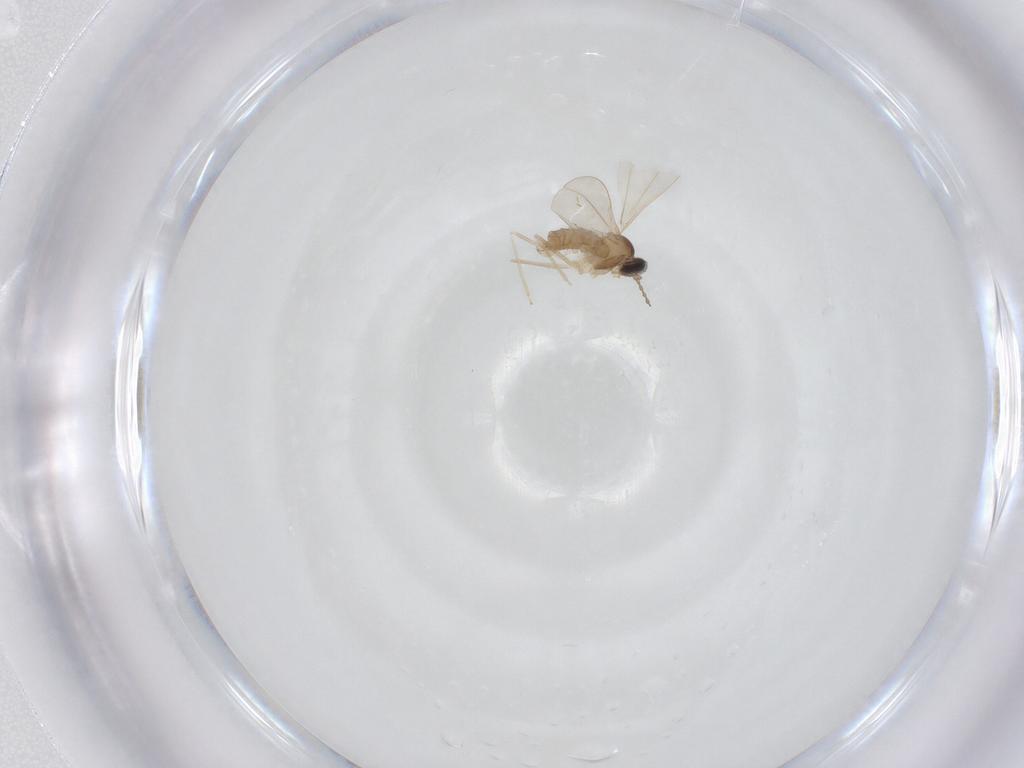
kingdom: Animalia
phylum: Arthropoda
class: Insecta
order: Diptera
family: Cecidomyiidae
